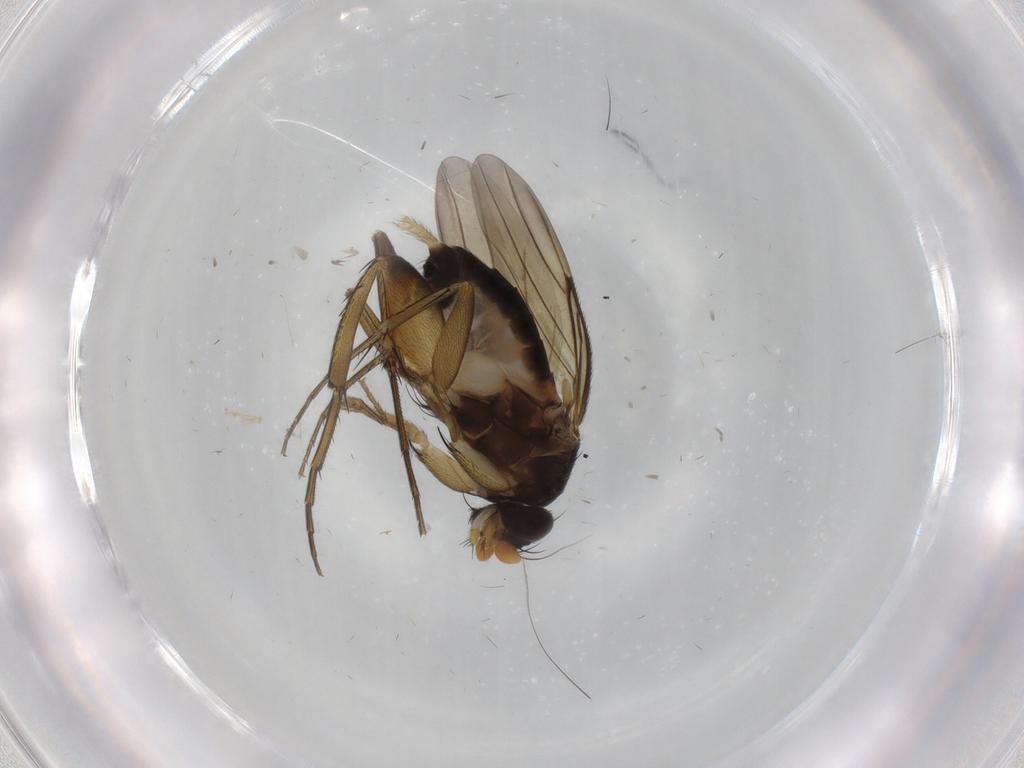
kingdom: Animalia
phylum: Arthropoda
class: Insecta
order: Diptera
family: Phoridae
